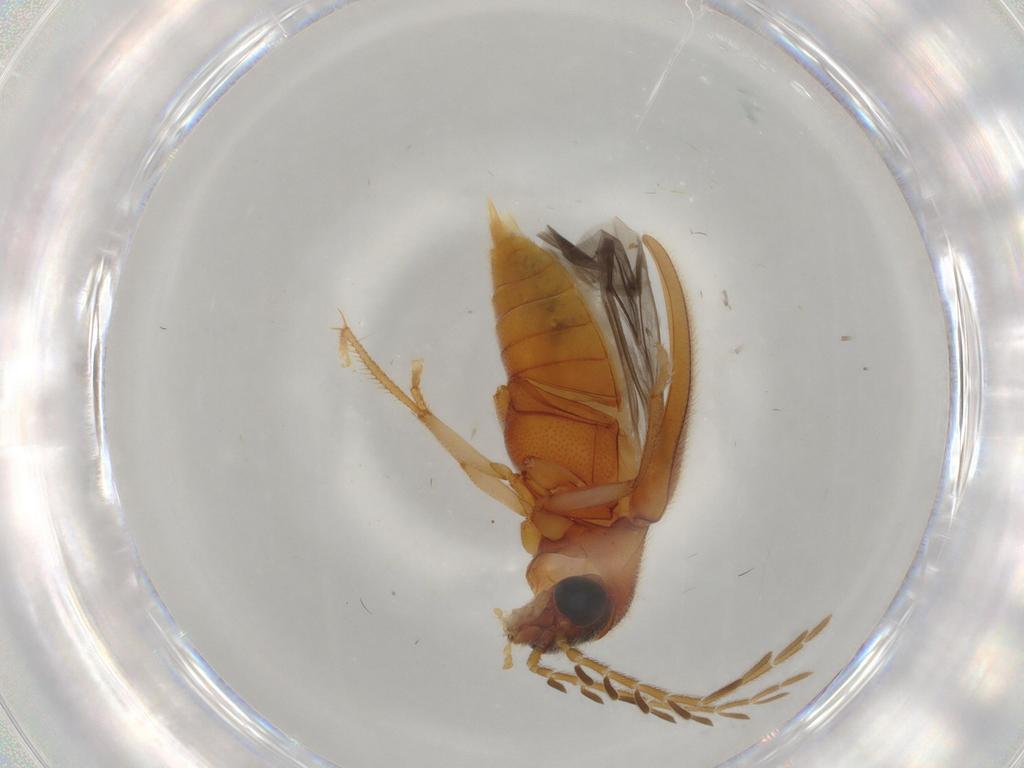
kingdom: Animalia
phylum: Arthropoda
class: Insecta
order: Coleoptera
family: Ptilodactylidae
